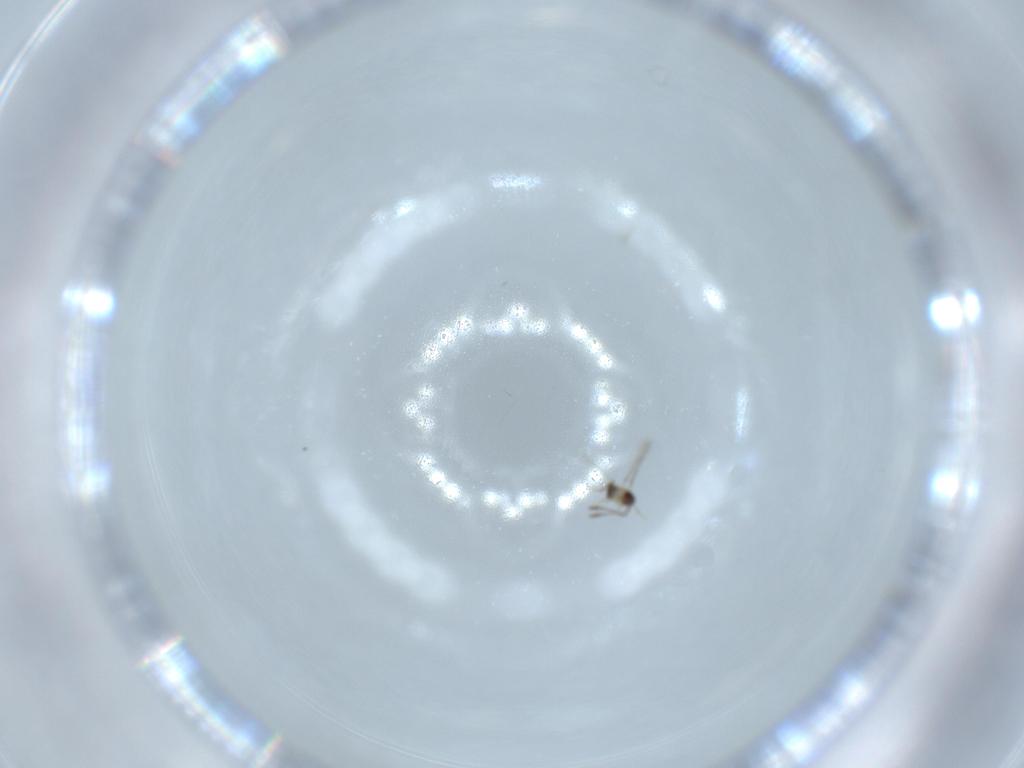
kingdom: Animalia
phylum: Arthropoda
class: Insecta
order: Hymenoptera
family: Mymaridae
